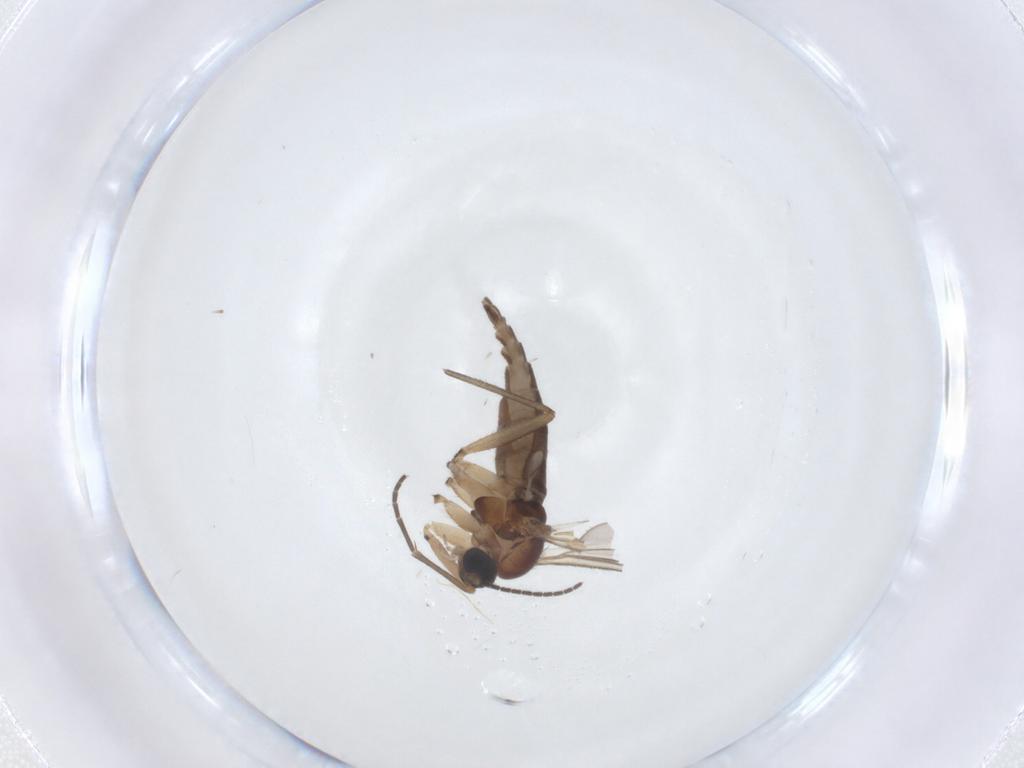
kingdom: Animalia
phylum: Arthropoda
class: Insecta
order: Diptera
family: Sciaridae
